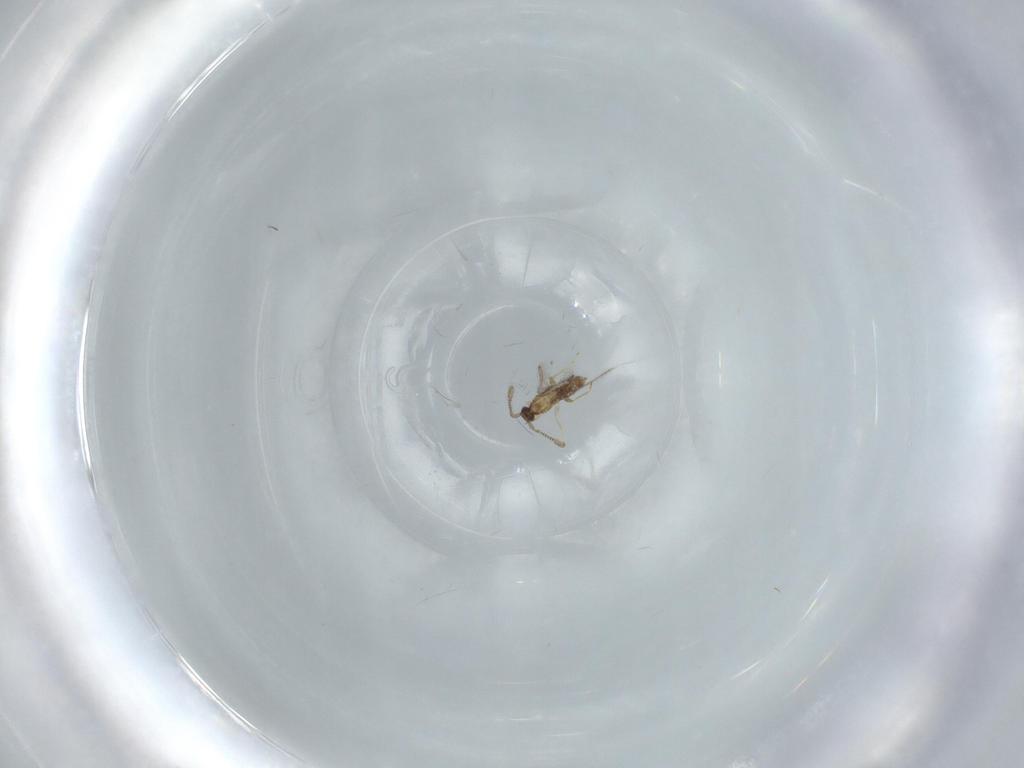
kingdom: Animalia
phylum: Arthropoda
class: Insecta
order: Hymenoptera
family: Mymaridae
